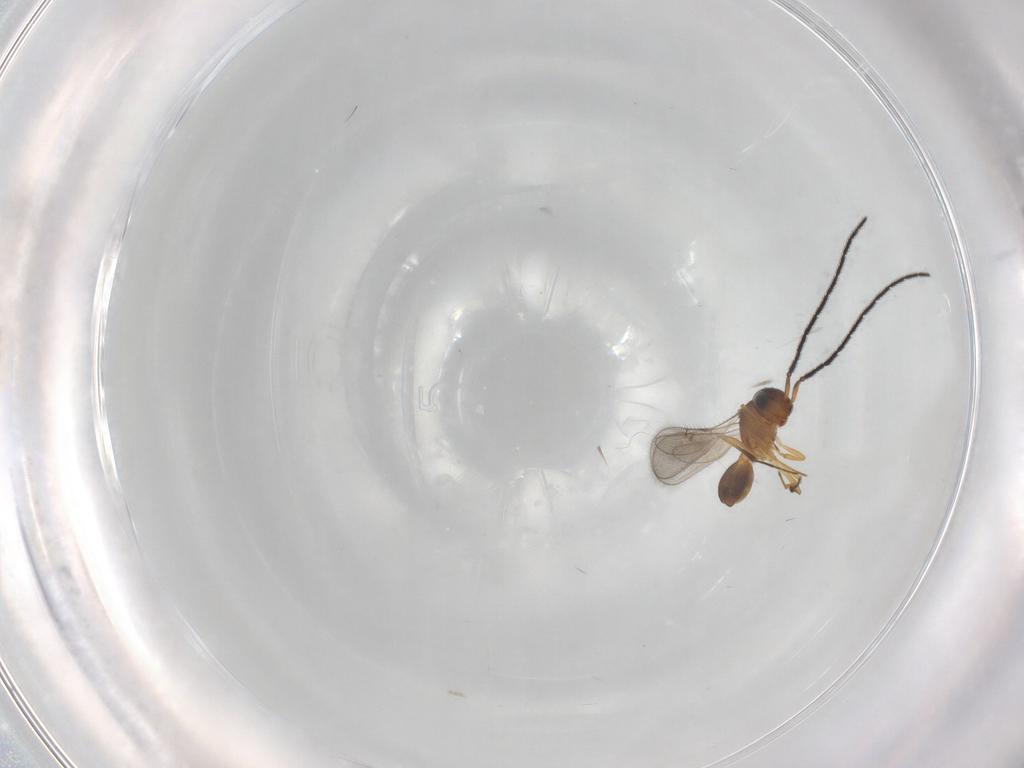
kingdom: Animalia
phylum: Arthropoda
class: Insecta
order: Hymenoptera
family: Scelionidae
